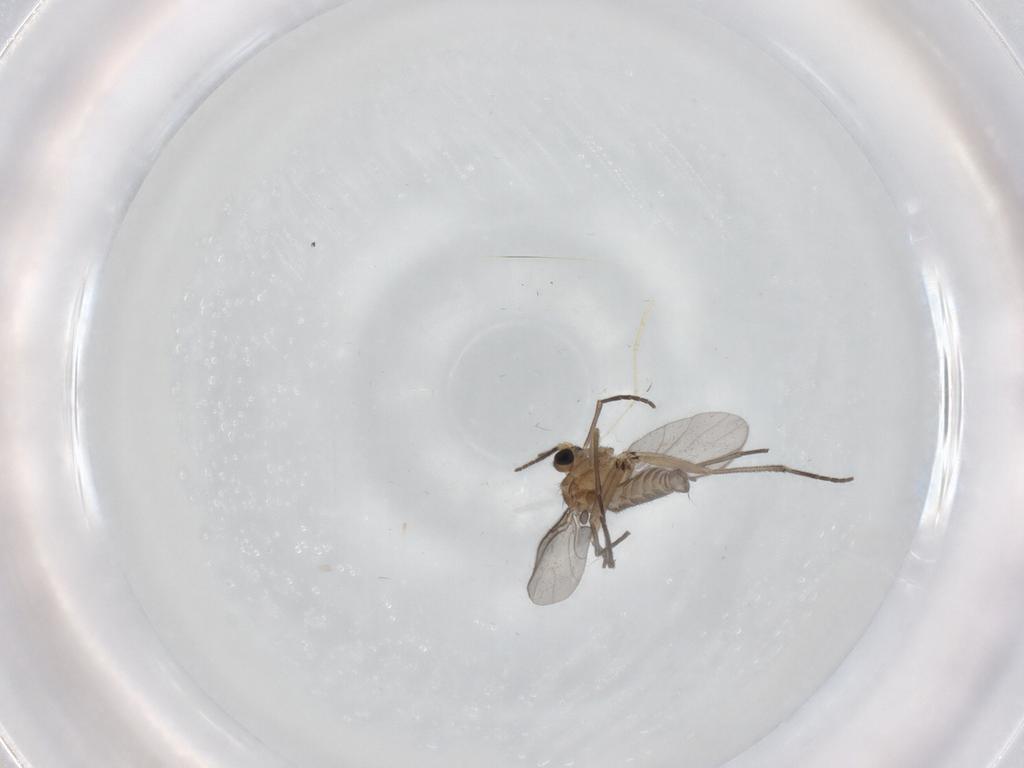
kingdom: Animalia
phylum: Arthropoda
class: Insecta
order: Diptera
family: Sciaridae
